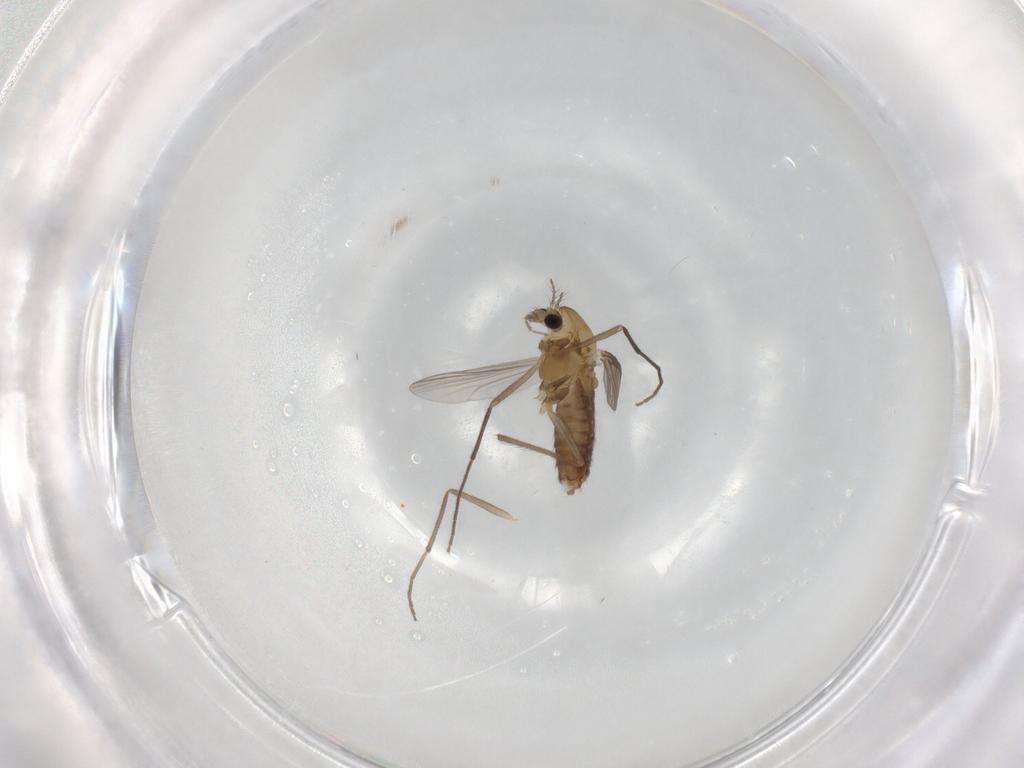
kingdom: Animalia
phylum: Arthropoda
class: Insecta
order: Diptera
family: Chironomidae
